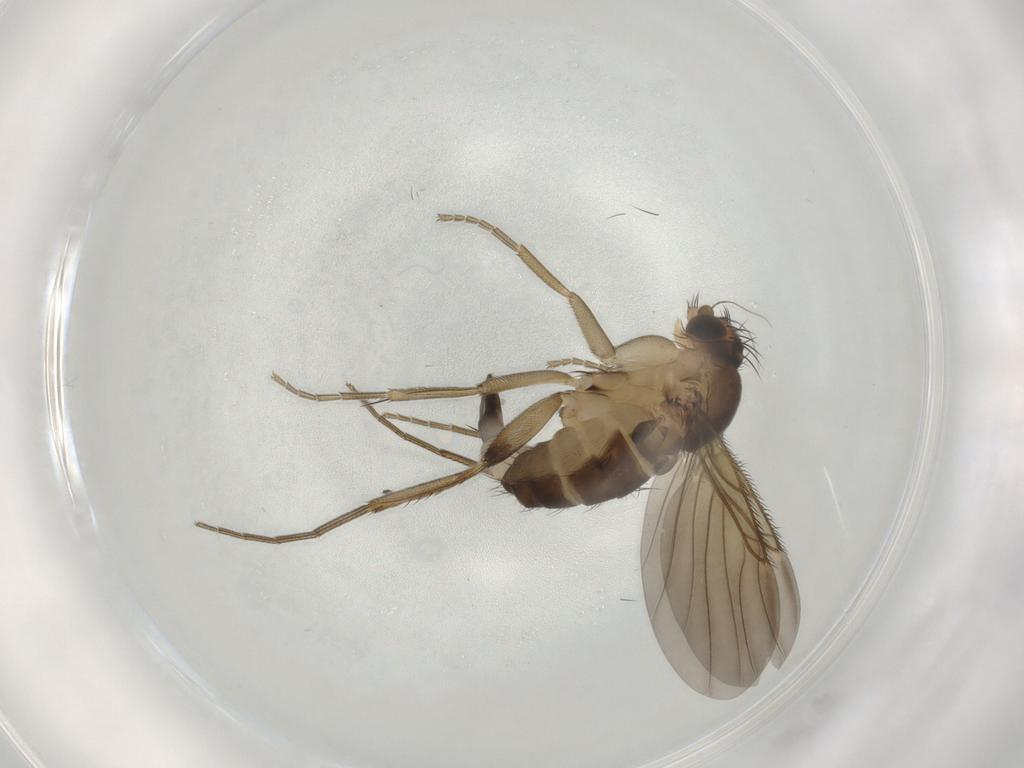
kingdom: Animalia
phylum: Arthropoda
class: Insecta
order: Diptera
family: Phoridae
